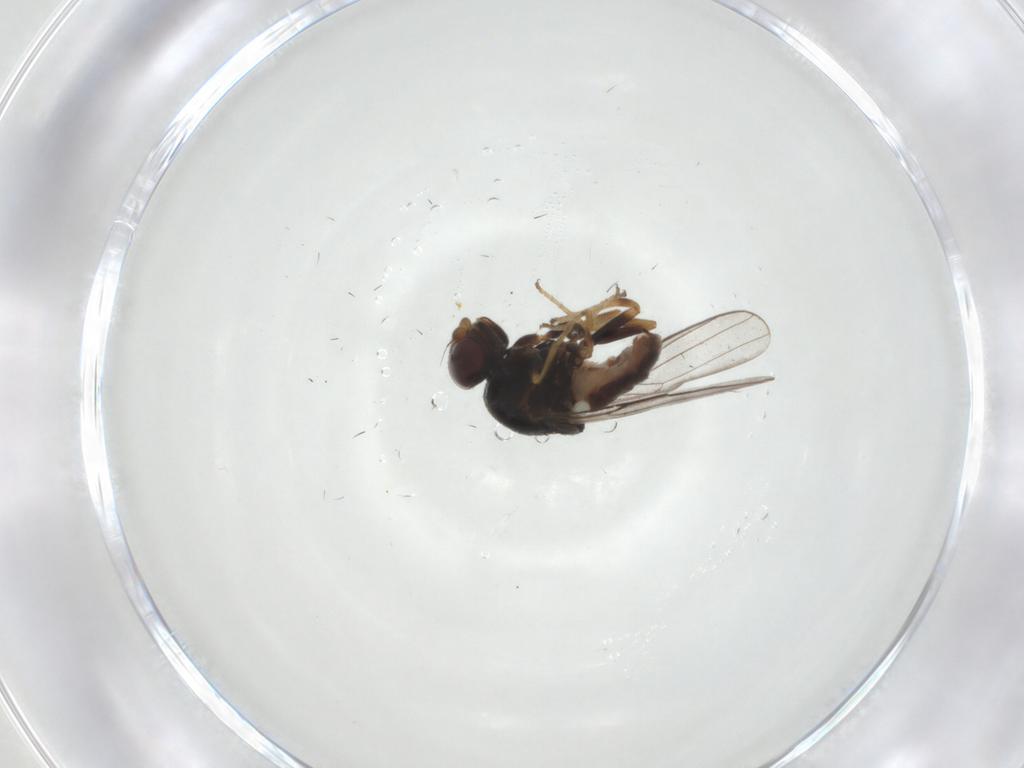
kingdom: Animalia
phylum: Arthropoda
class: Insecta
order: Diptera
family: Chloropidae
